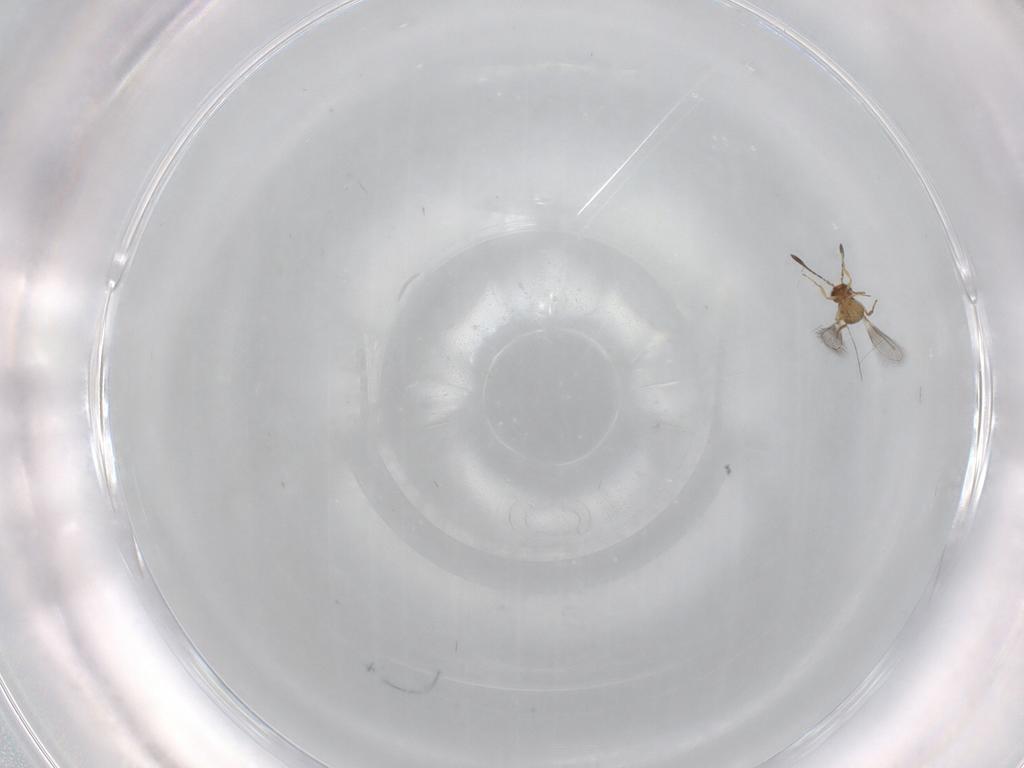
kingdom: Animalia
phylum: Arthropoda
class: Insecta
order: Hymenoptera
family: Mymaridae
